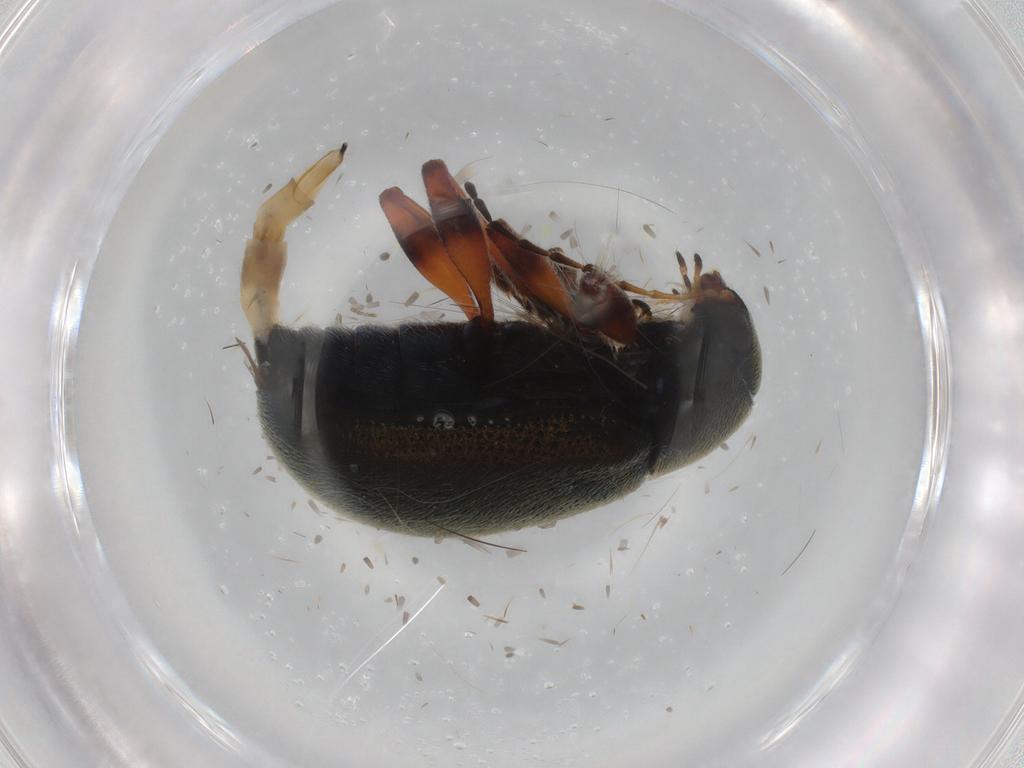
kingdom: Animalia
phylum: Arthropoda
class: Insecta
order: Coleoptera
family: Chrysomelidae
